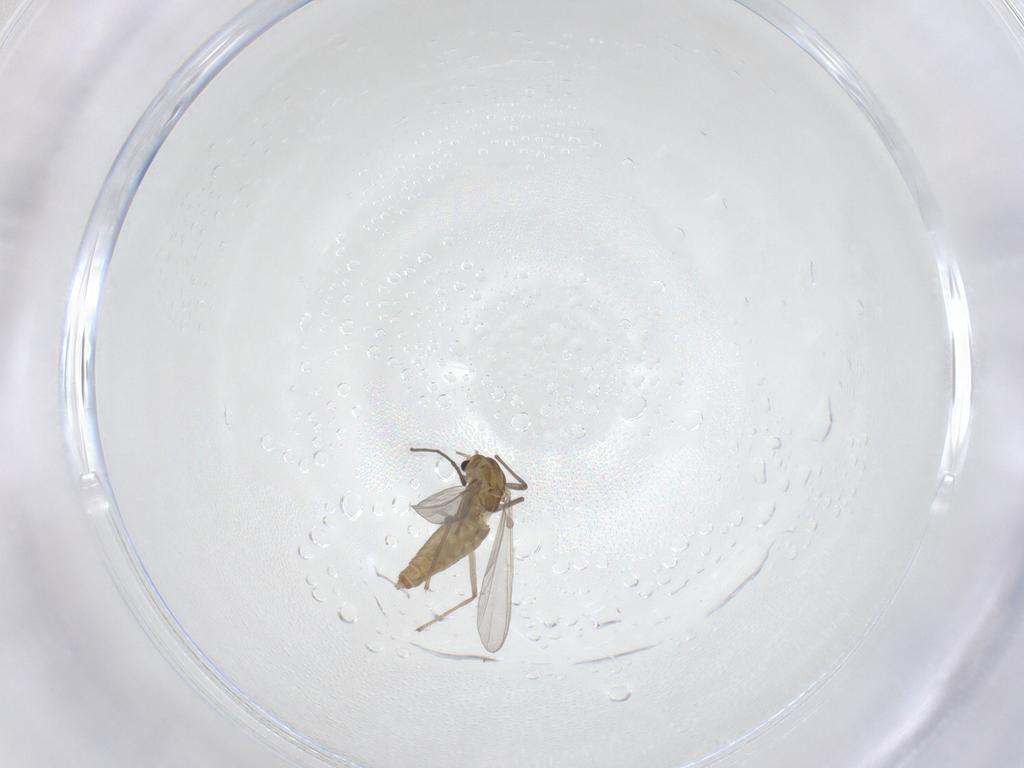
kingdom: Animalia
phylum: Arthropoda
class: Insecta
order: Diptera
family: Chironomidae
